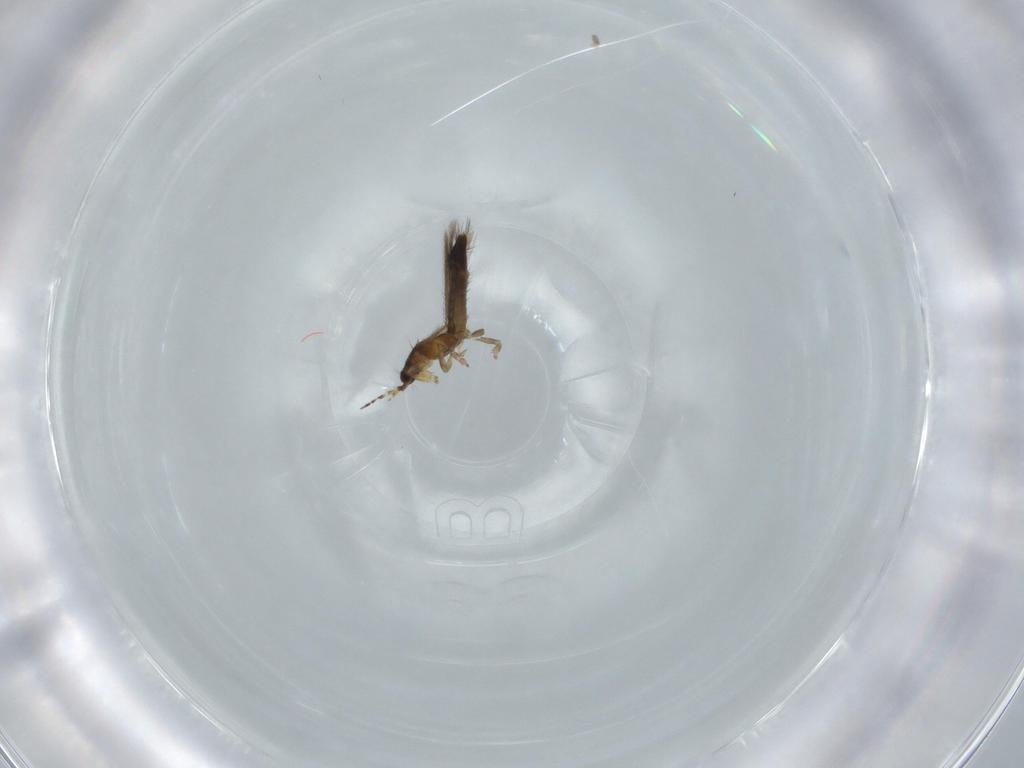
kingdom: Animalia
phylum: Arthropoda
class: Insecta
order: Thysanoptera
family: Thripidae
